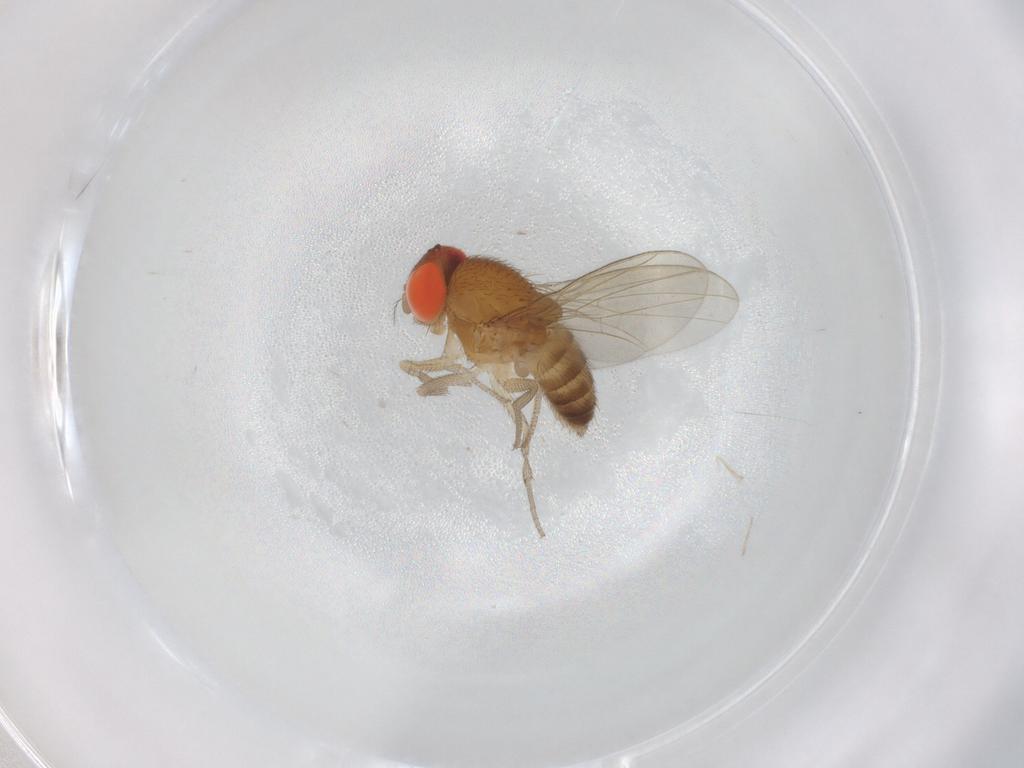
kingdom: Animalia
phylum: Arthropoda
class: Insecta
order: Diptera
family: Drosophilidae
